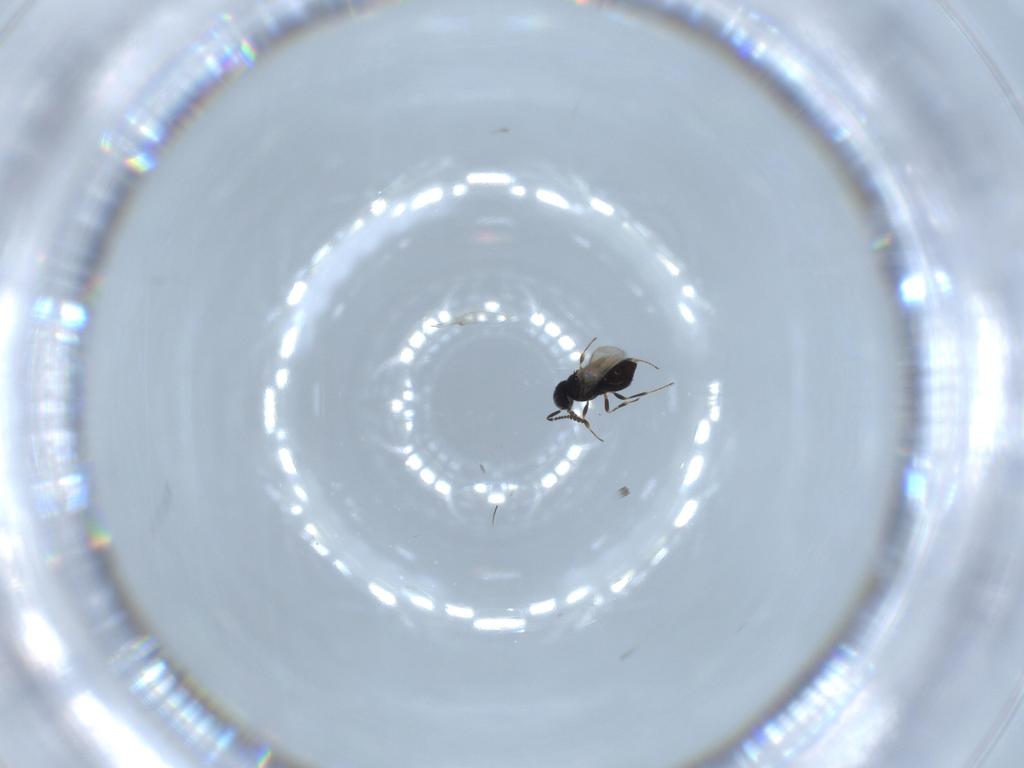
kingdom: Animalia
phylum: Arthropoda
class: Insecta
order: Hymenoptera
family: Scelionidae
